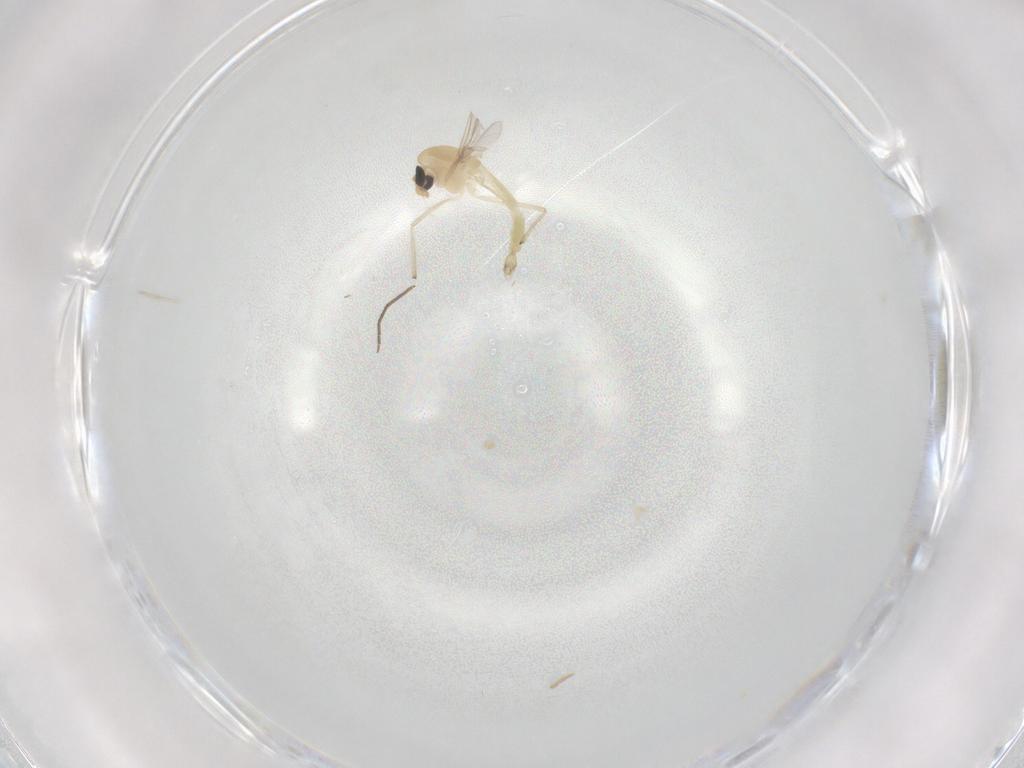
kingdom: Animalia
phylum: Arthropoda
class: Insecta
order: Diptera
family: Chironomidae
